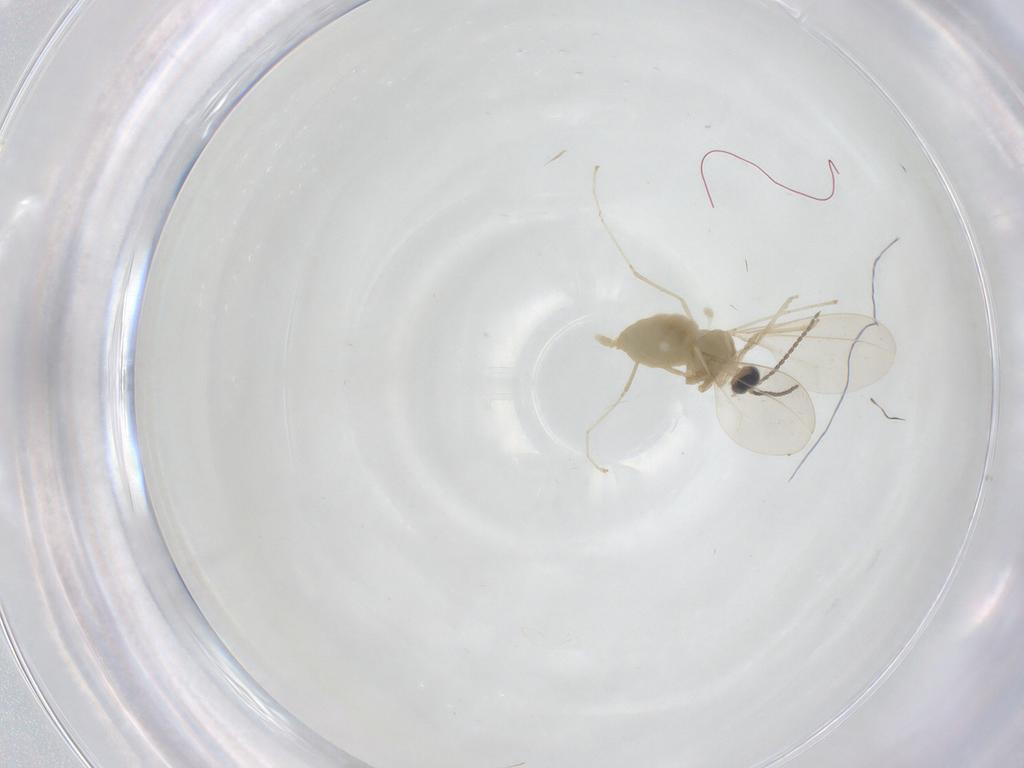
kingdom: Animalia
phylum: Arthropoda
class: Insecta
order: Diptera
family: Cecidomyiidae
